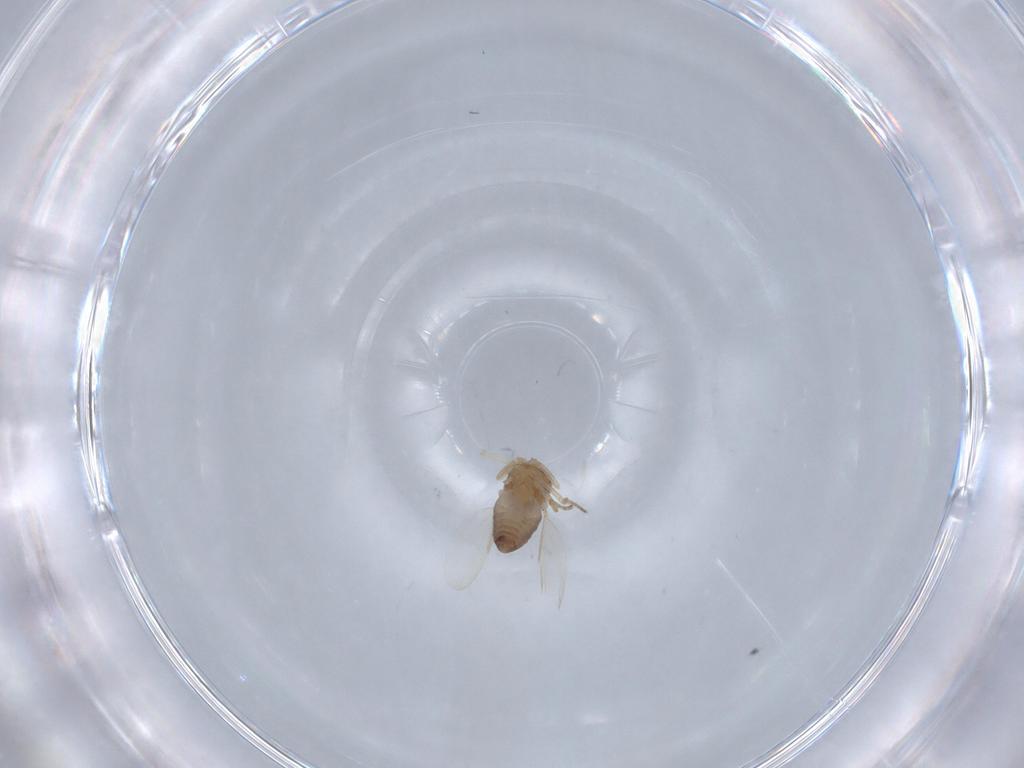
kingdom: Animalia
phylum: Arthropoda
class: Insecta
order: Diptera
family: Ceratopogonidae
